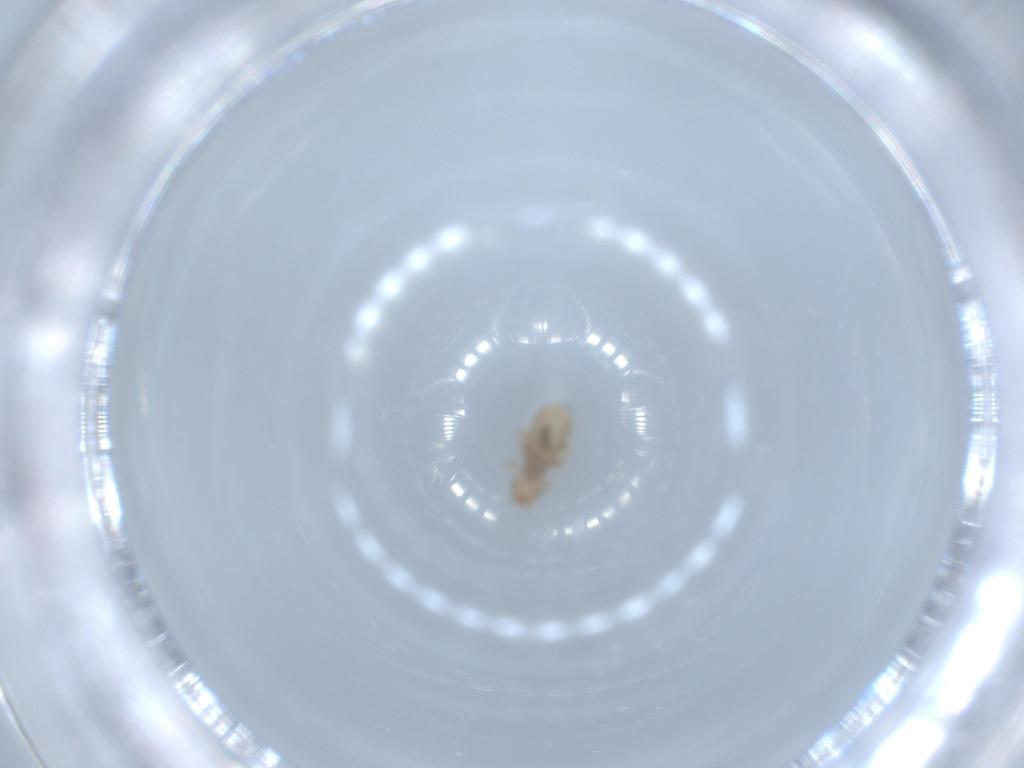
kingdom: Animalia
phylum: Arthropoda
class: Insecta
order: Psocodea
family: Liposcelididae
